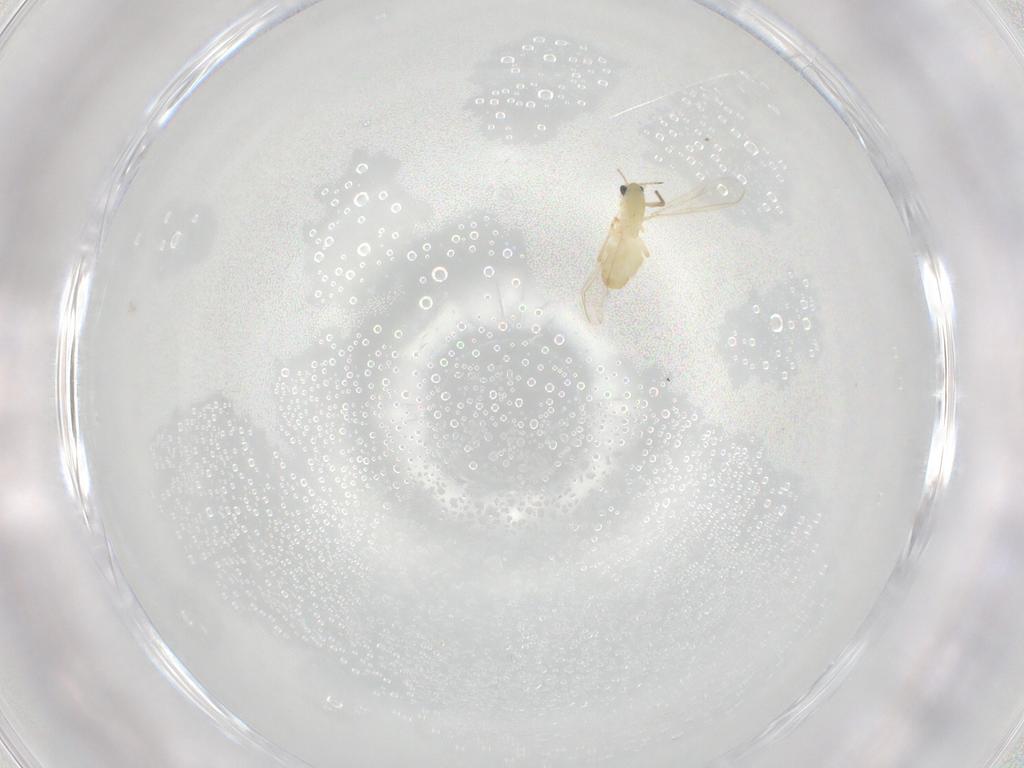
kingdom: Animalia
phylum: Arthropoda
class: Insecta
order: Diptera
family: Chironomidae
